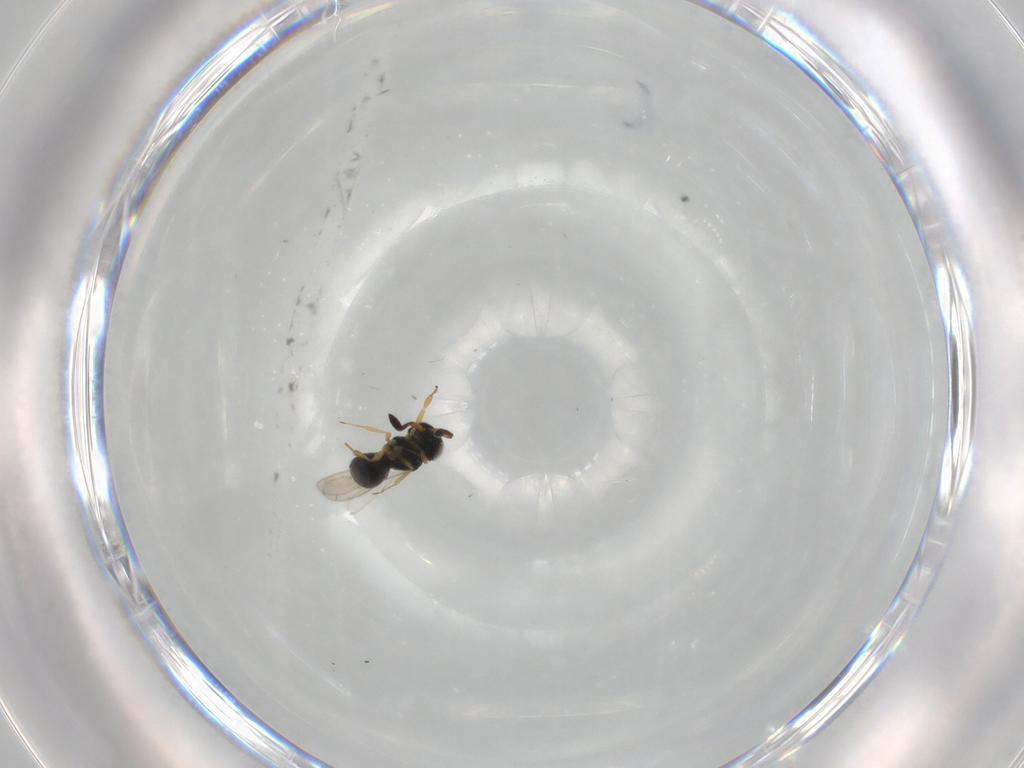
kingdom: Animalia
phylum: Arthropoda
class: Insecta
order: Hymenoptera
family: Scelionidae
